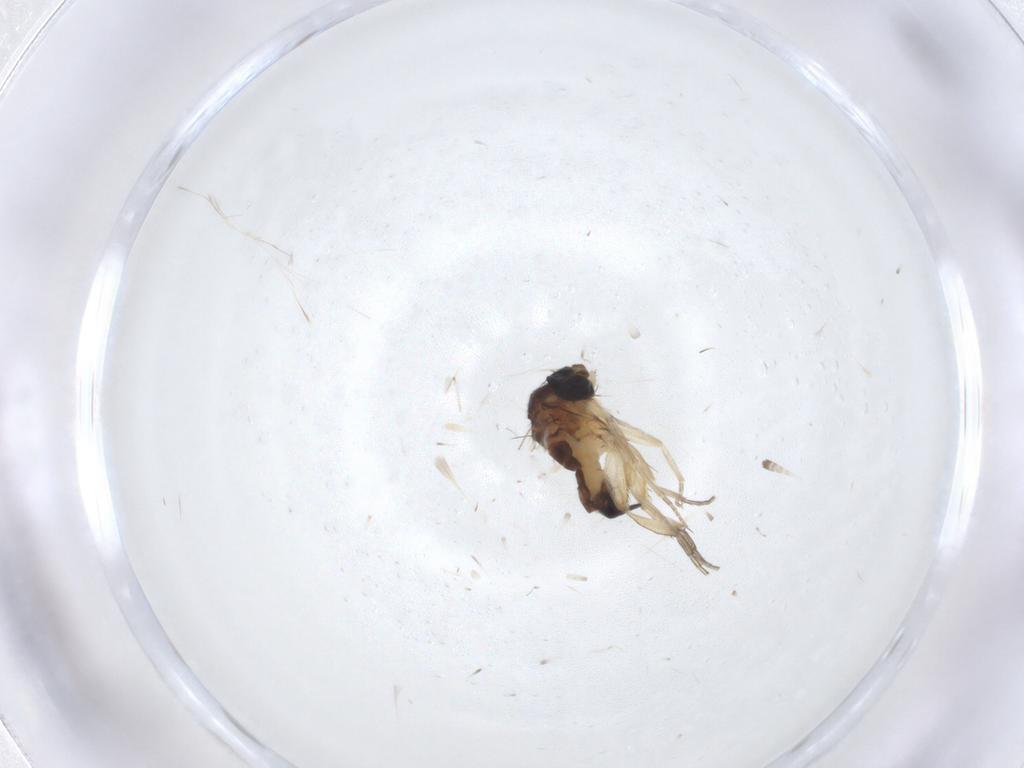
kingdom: Animalia
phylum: Arthropoda
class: Insecta
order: Diptera
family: Milichiidae
